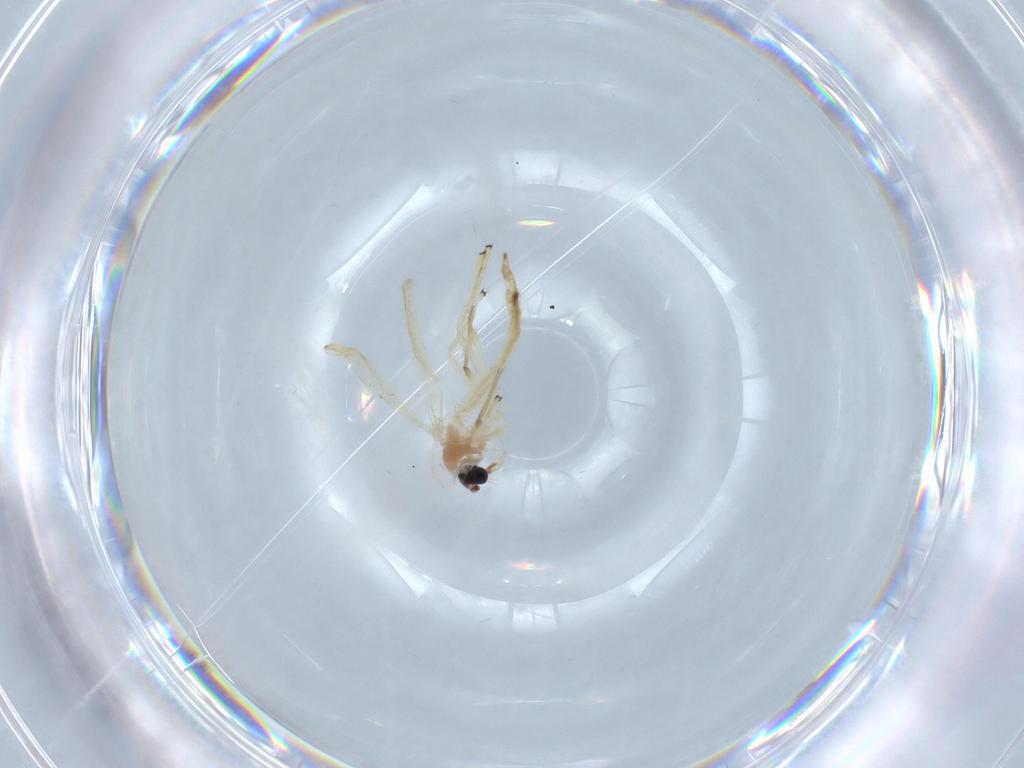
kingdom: Animalia
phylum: Arthropoda
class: Insecta
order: Diptera
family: Chironomidae
